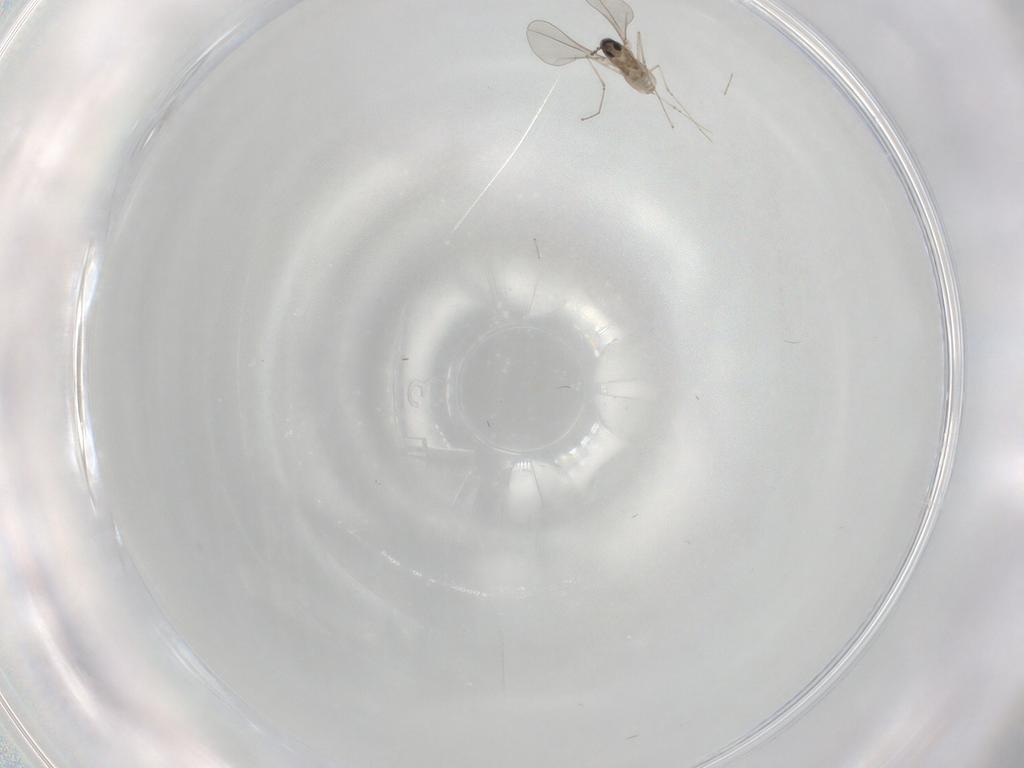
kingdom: Animalia
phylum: Arthropoda
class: Insecta
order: Diptera
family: Cecidomyiidae
